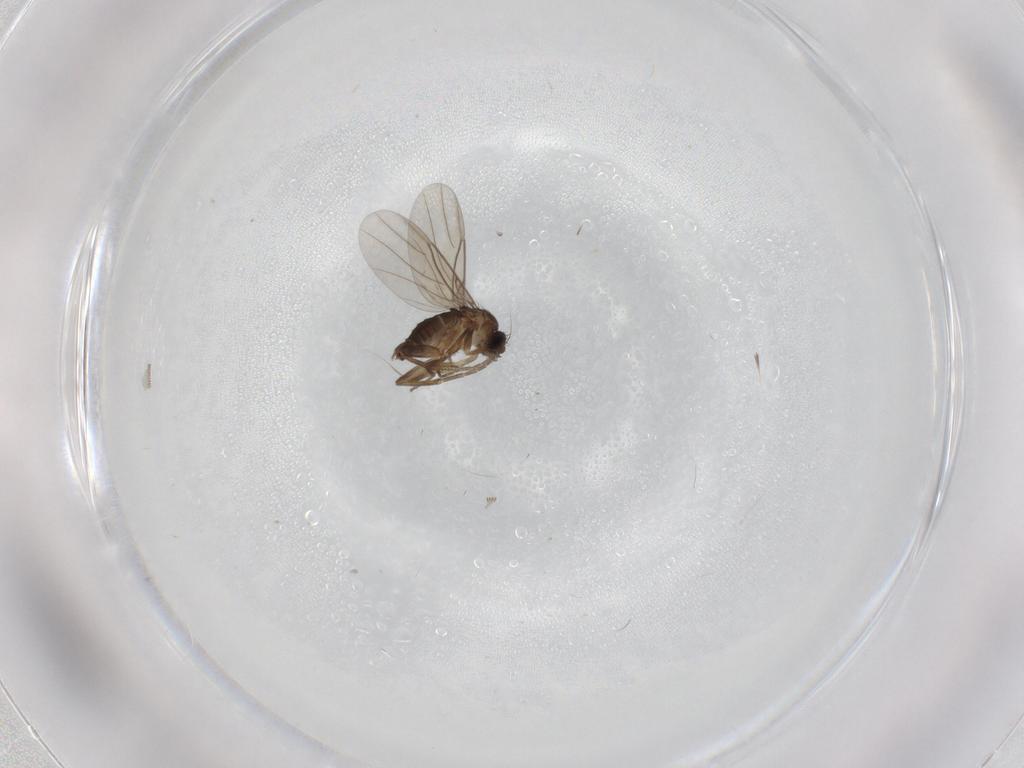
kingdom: Animalia
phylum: Arthropoda
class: Insecta
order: Diptera
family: Phoridae
